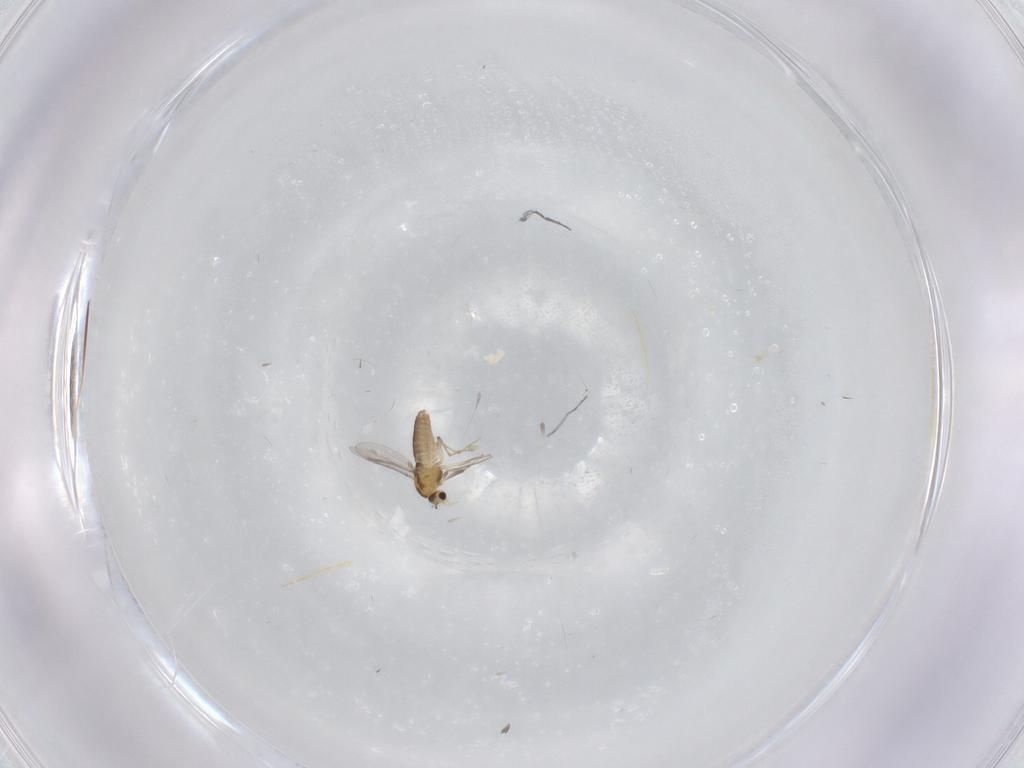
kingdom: Animalia
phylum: Arthropoda
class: Insecta
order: Diptera
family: Chironomidae
